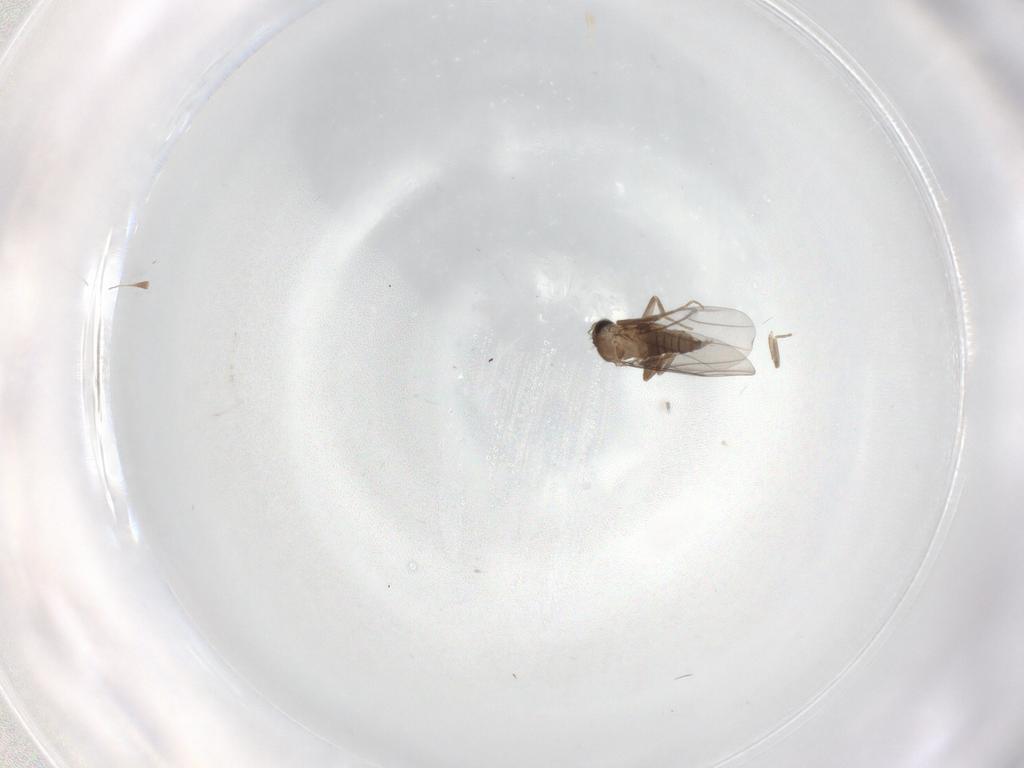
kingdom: Animalia
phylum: Arthropoda
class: Insecta
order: Diptera
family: Cecidomyiidae
